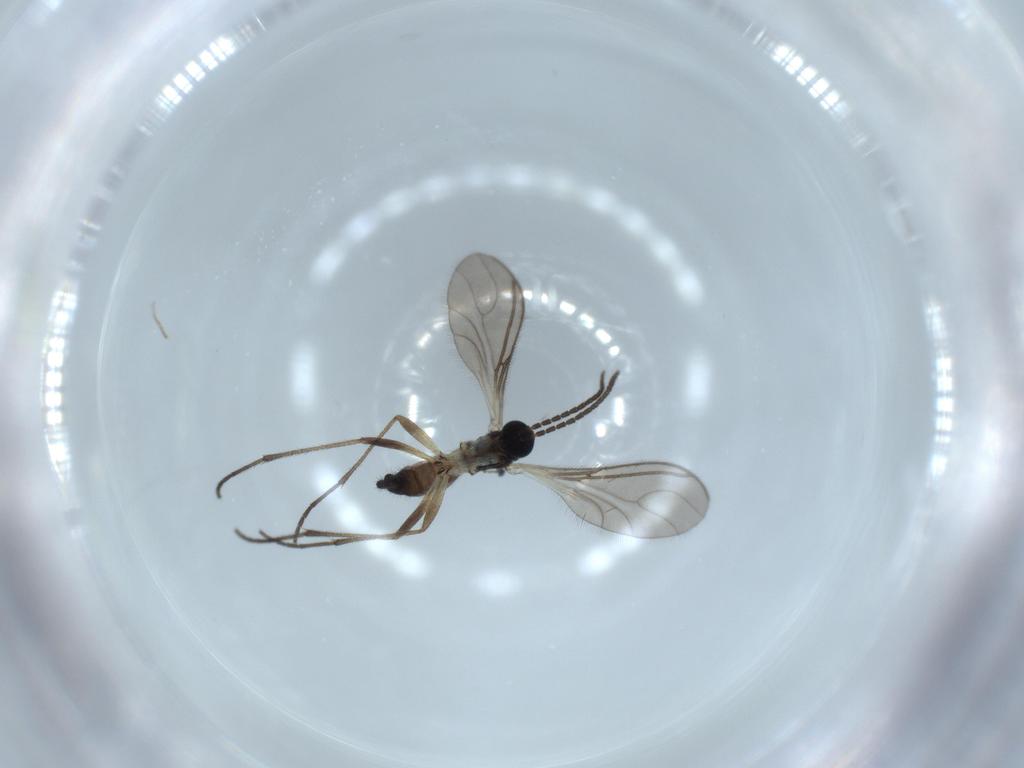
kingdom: Animalia
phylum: Arthropoda
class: Insecta
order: Diptera
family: Sciaridae
